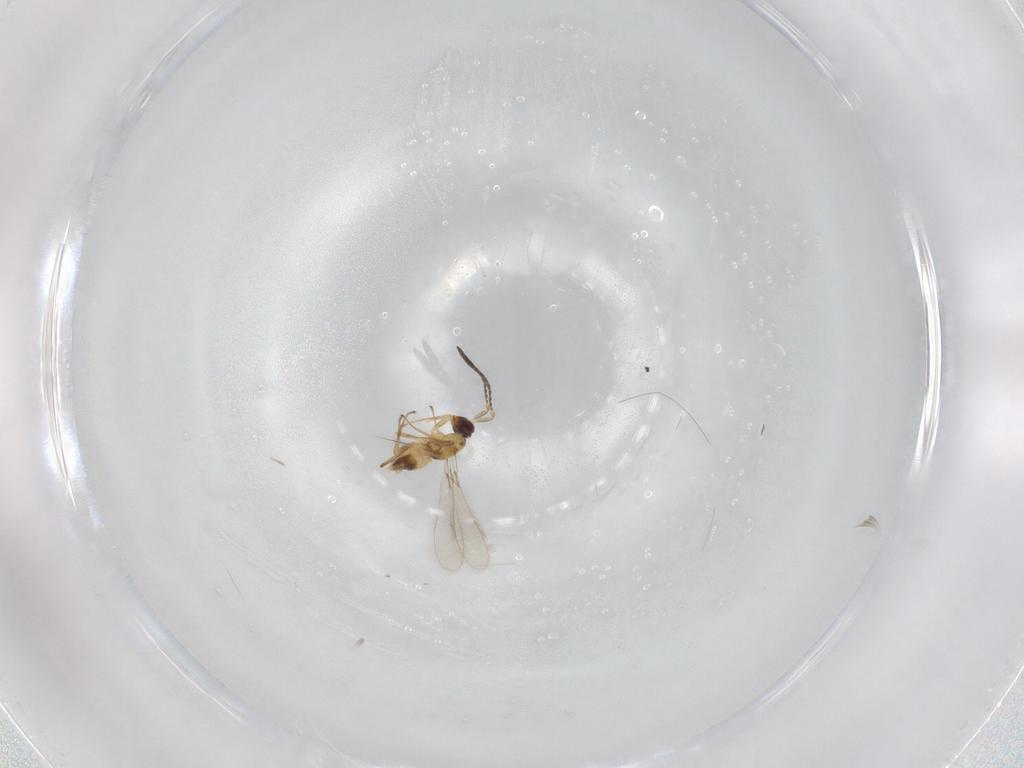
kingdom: Animalia
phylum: Arthropoda
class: Insecta
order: Hymenoptera
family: Mymaridae
